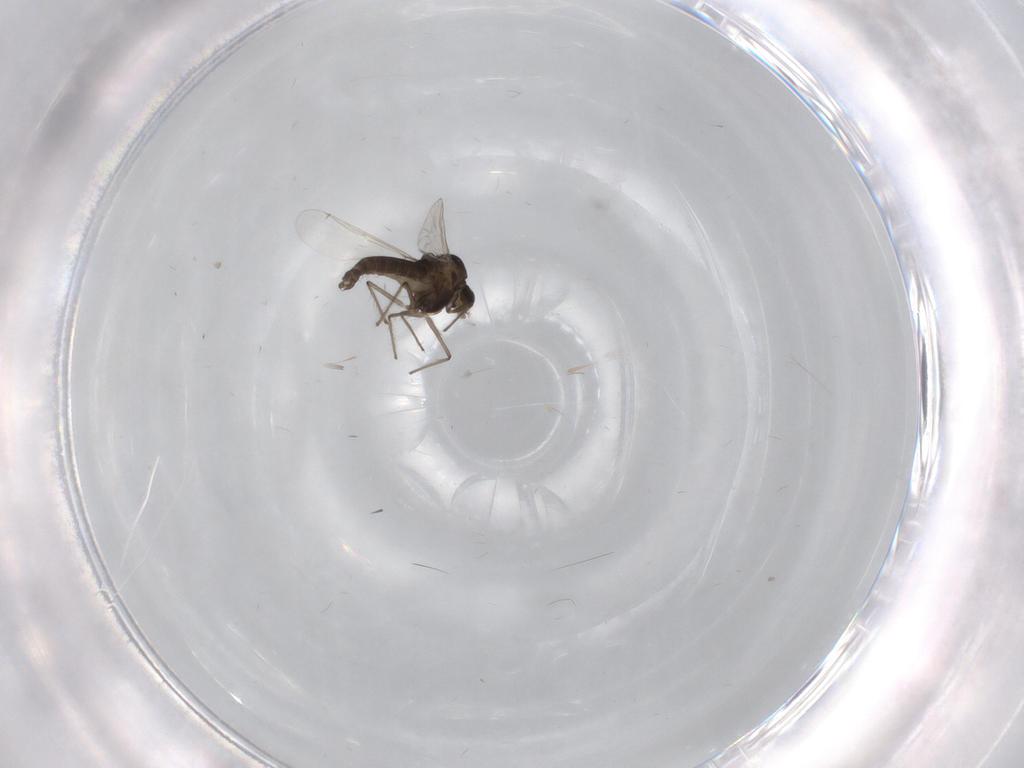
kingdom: Animalia
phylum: Arthropoda
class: Insecta
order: Diptera
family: Chironomidae
